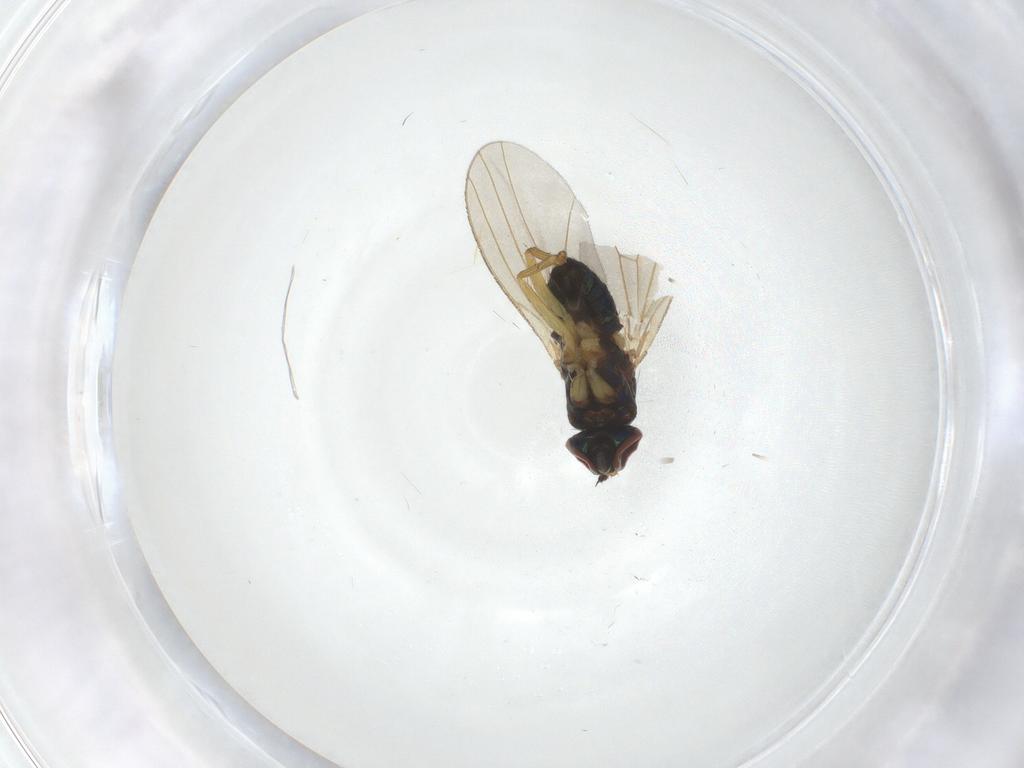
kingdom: Animalia
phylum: Arthropoda
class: Insecta
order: Diptera
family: Dolichopodidae
